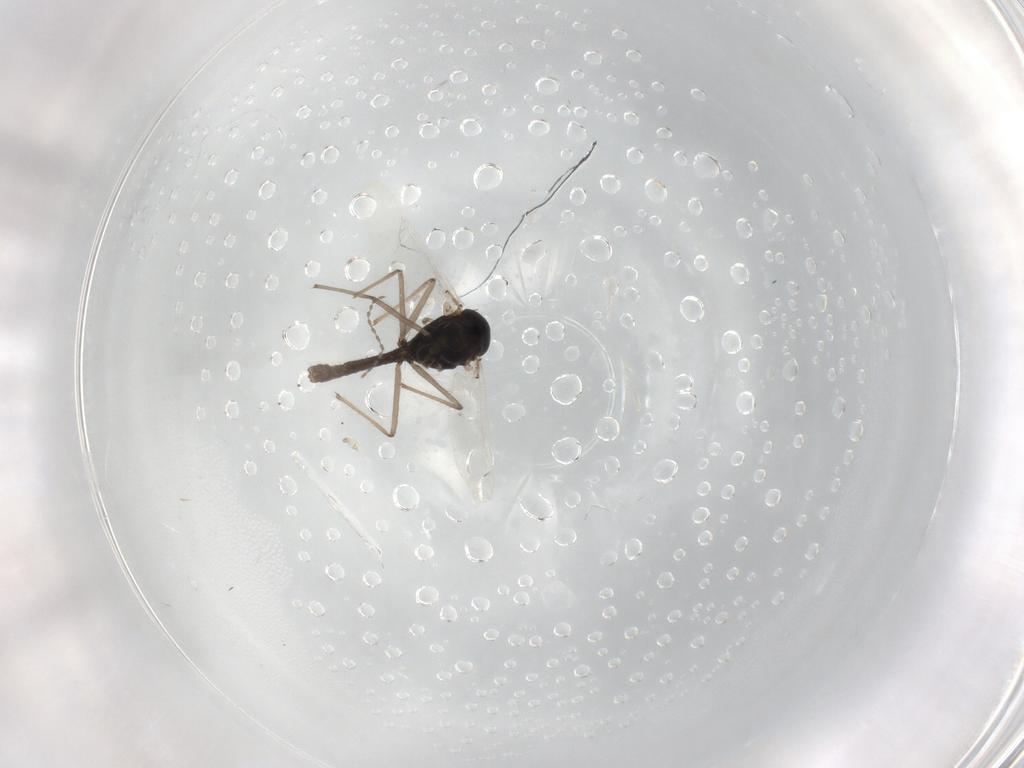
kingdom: Animalia
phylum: Arthropoda
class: Insecta
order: Diptera
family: Chironomidae
